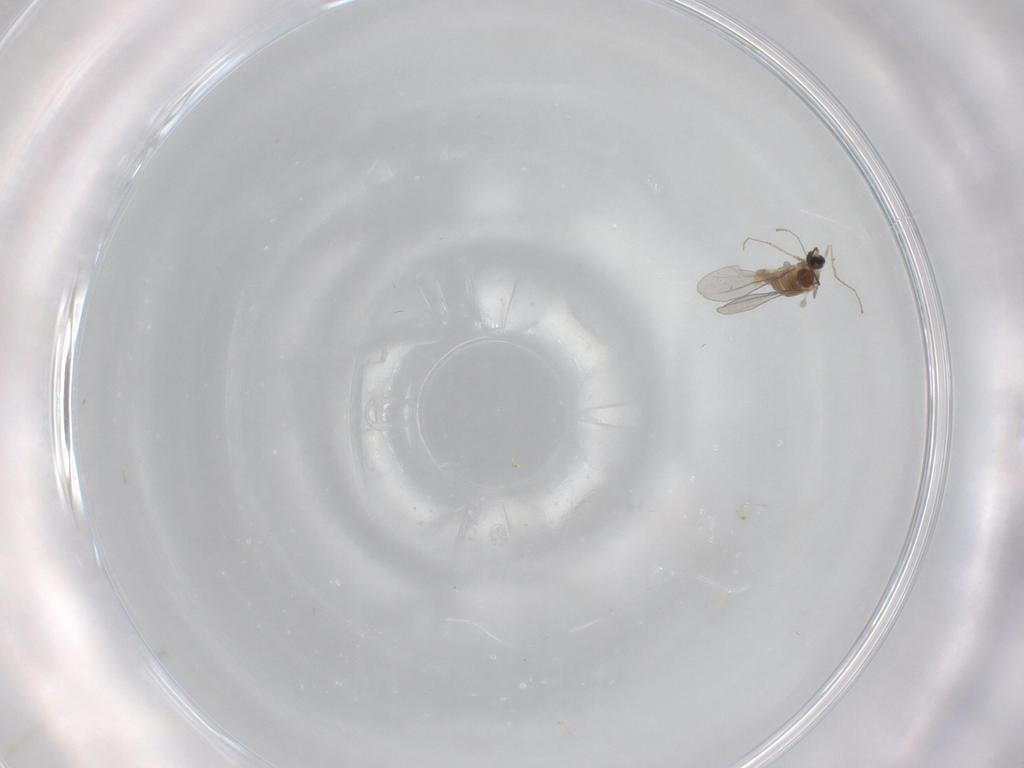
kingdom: Animalia
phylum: Arthropoda
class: Insecta
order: Diptera
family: Cecidomyiidae
